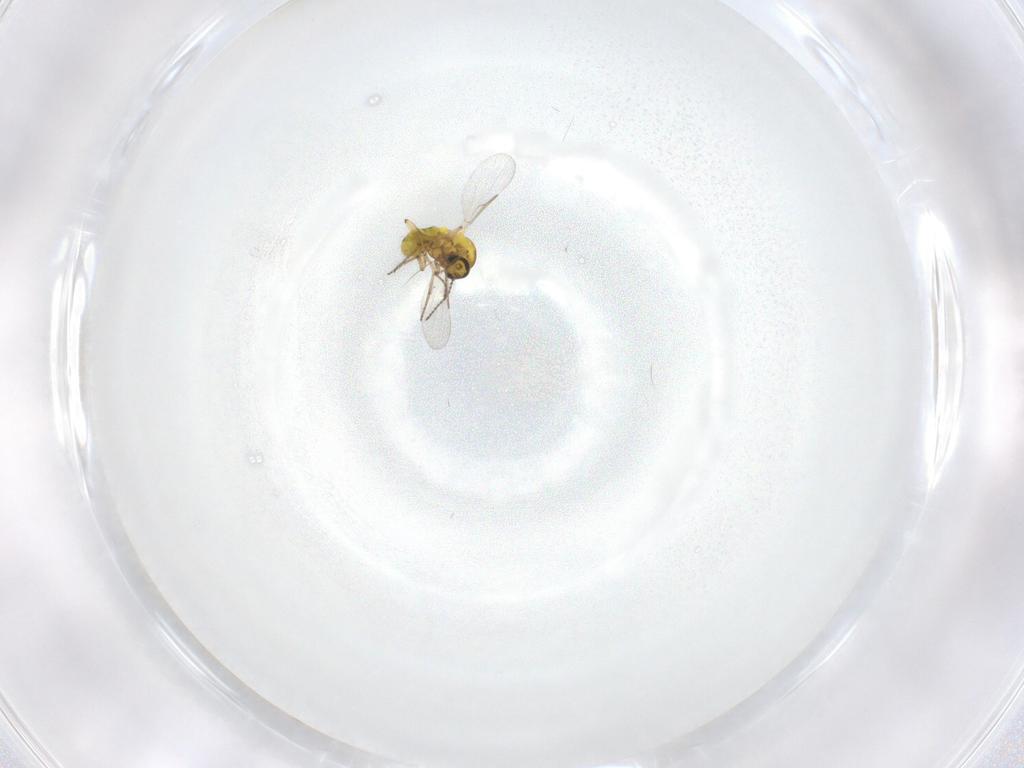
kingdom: Animalia
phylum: Arthropoda
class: Insecta
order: Diptera
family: Ceratopogonidae
